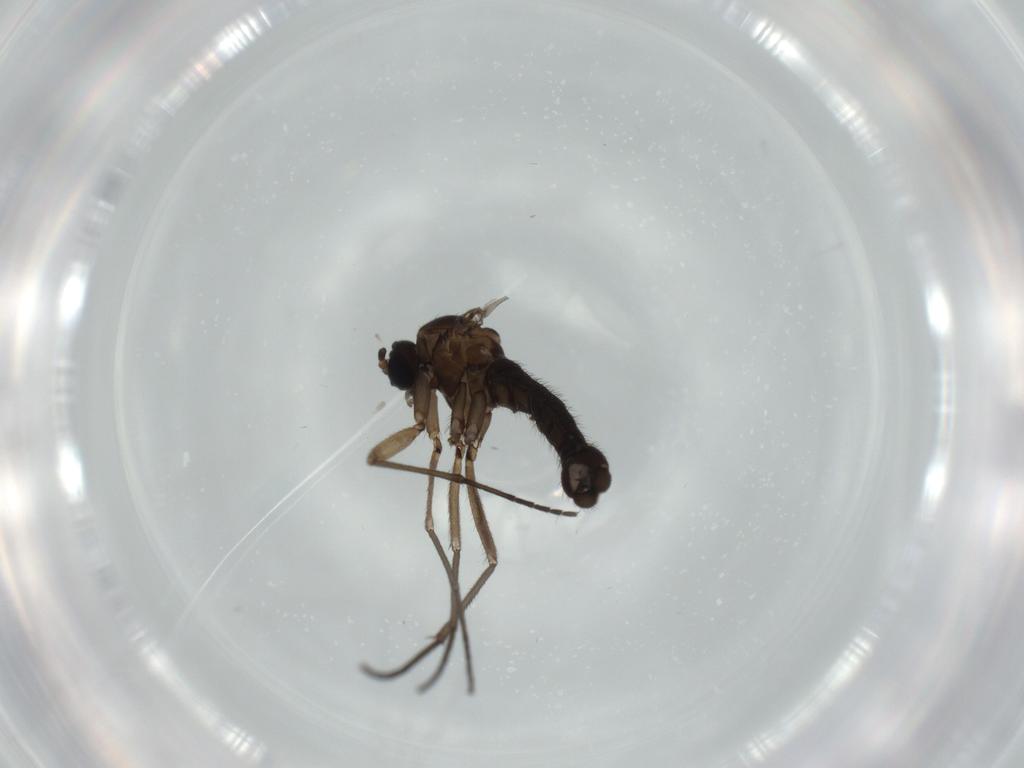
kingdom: Animalia
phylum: Arthropoda
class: Insecta
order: Diptera
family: Sciaridae
